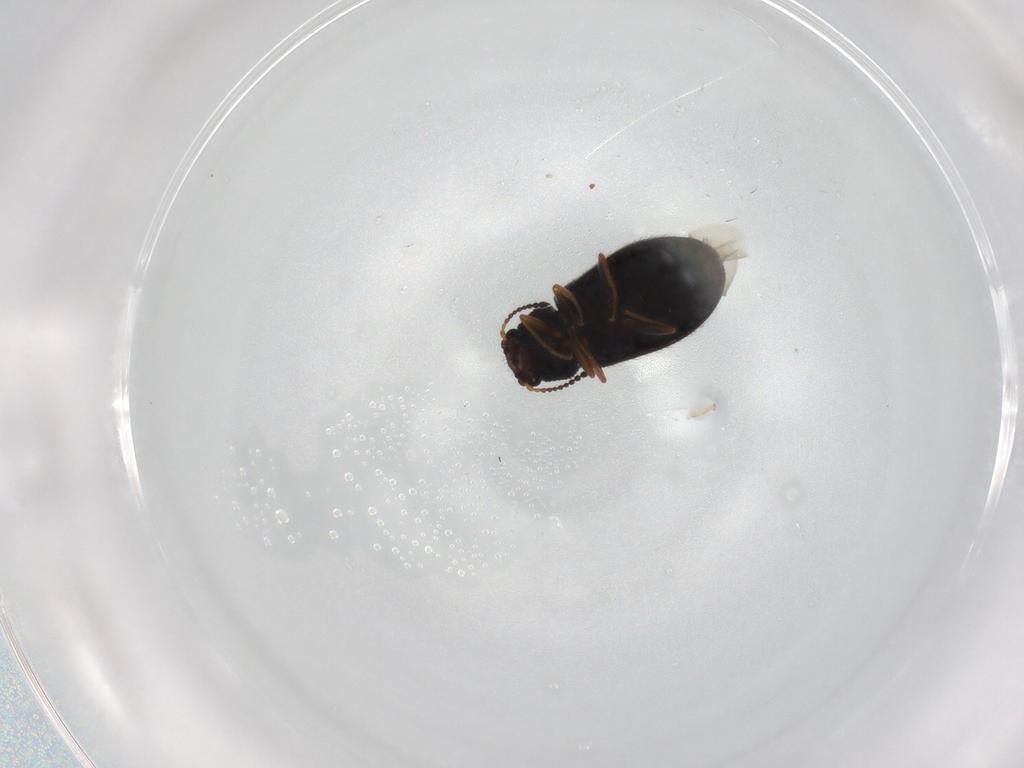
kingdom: Animalia
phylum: Arthropoda
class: Insecta
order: Coleoptera
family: Melyridae
